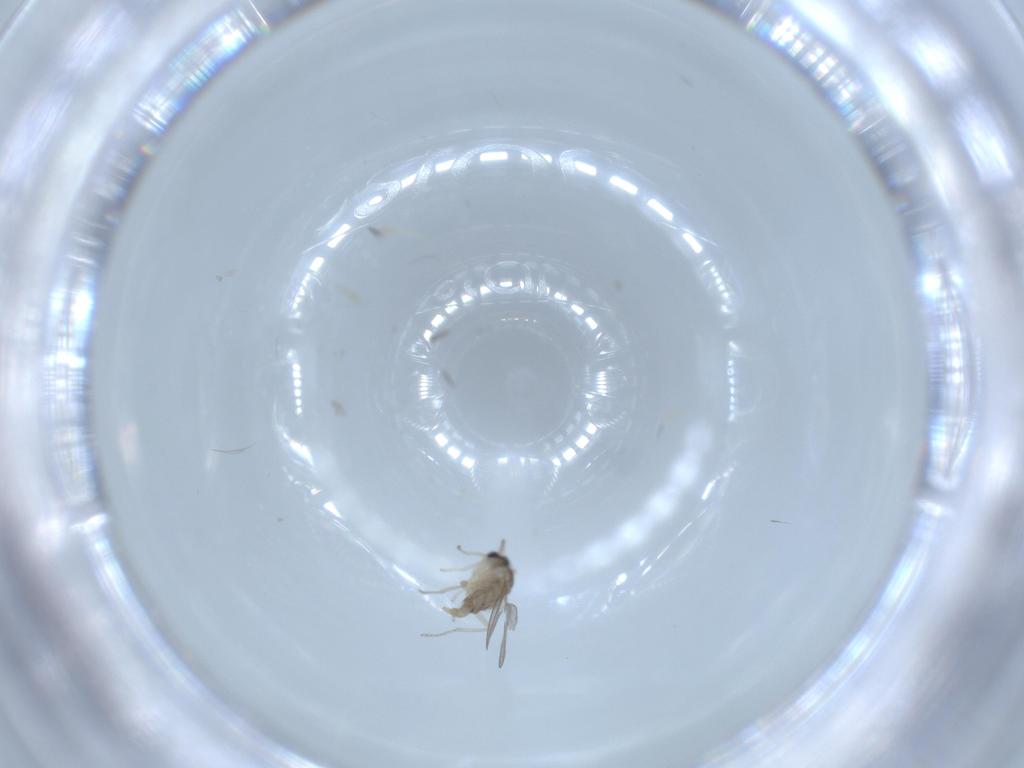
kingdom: Animalia
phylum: Arthropoda
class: Insecta
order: Diptera
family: Cecidomyiidae
